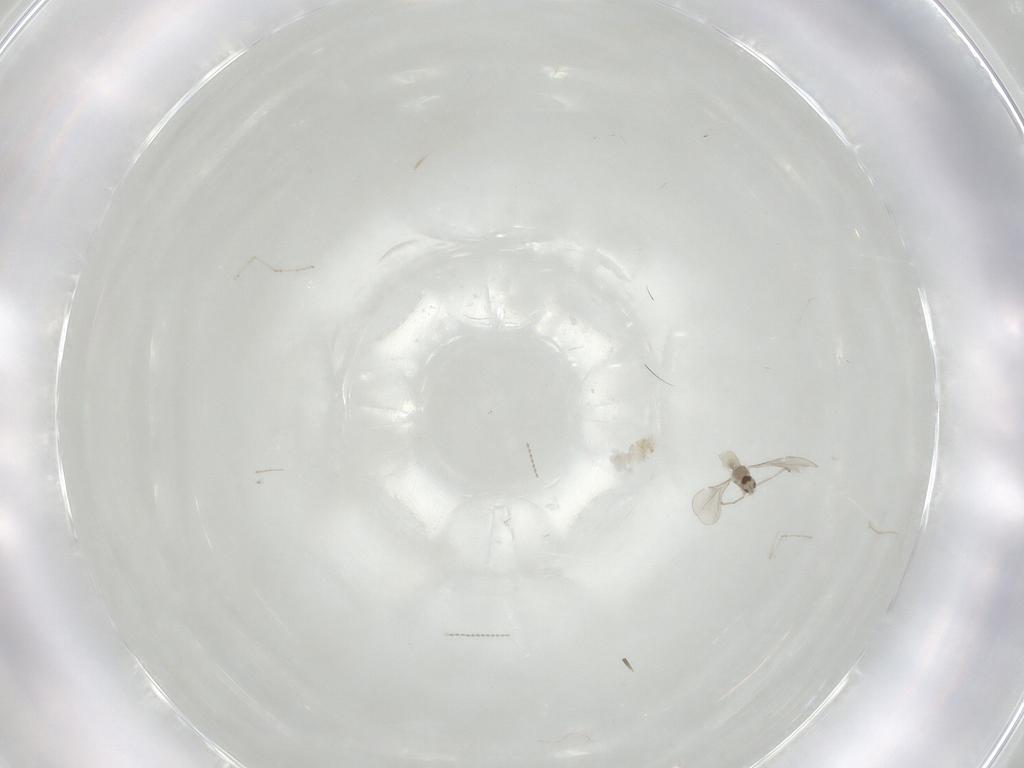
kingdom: Animalia
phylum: Arthropoda
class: Insecta
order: Diptera
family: Cecidomyiidae
